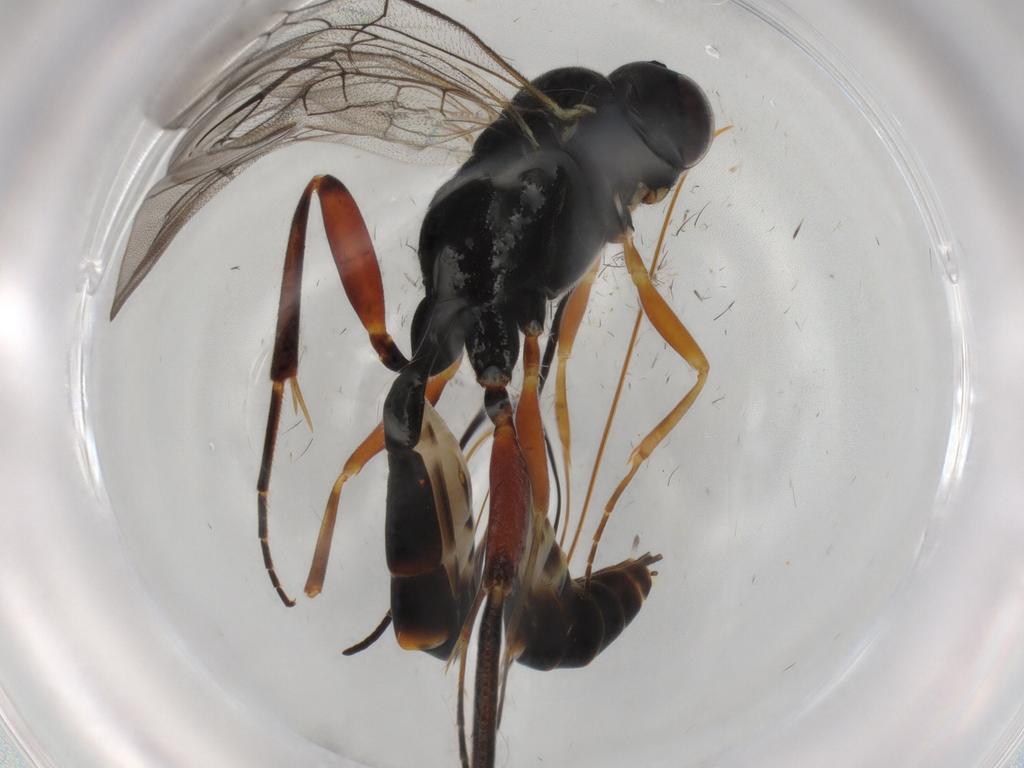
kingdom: Animalia
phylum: Arthropoda
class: Insecta
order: Hymenoptera
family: Ichneumonidae
